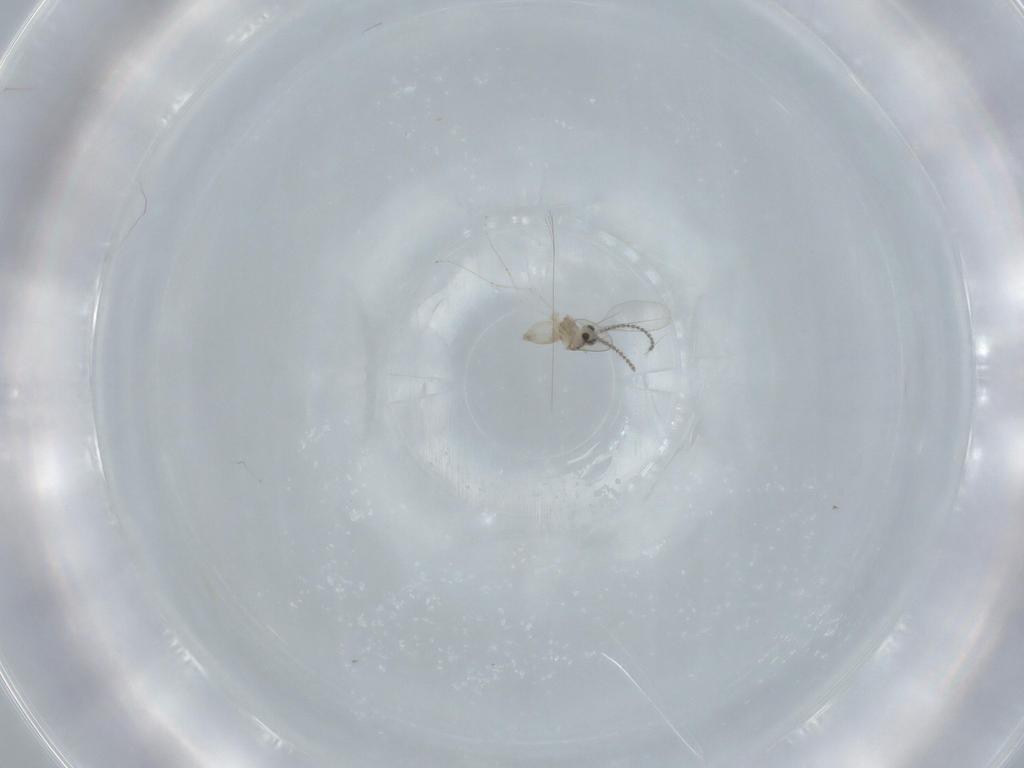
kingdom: Animalia
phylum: Arthropoda
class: Insecta
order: Diptera
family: Cecidomyiidae
